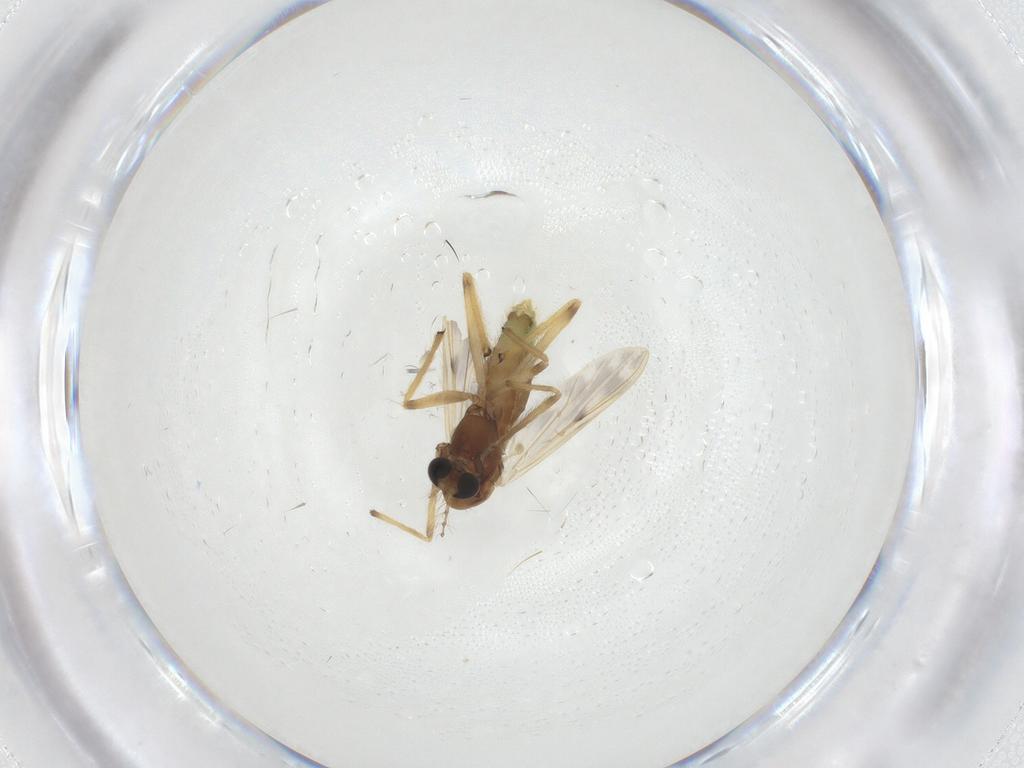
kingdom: Animalia
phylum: Arthropoda
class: Insecta
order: Diptera
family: Chironomidae
